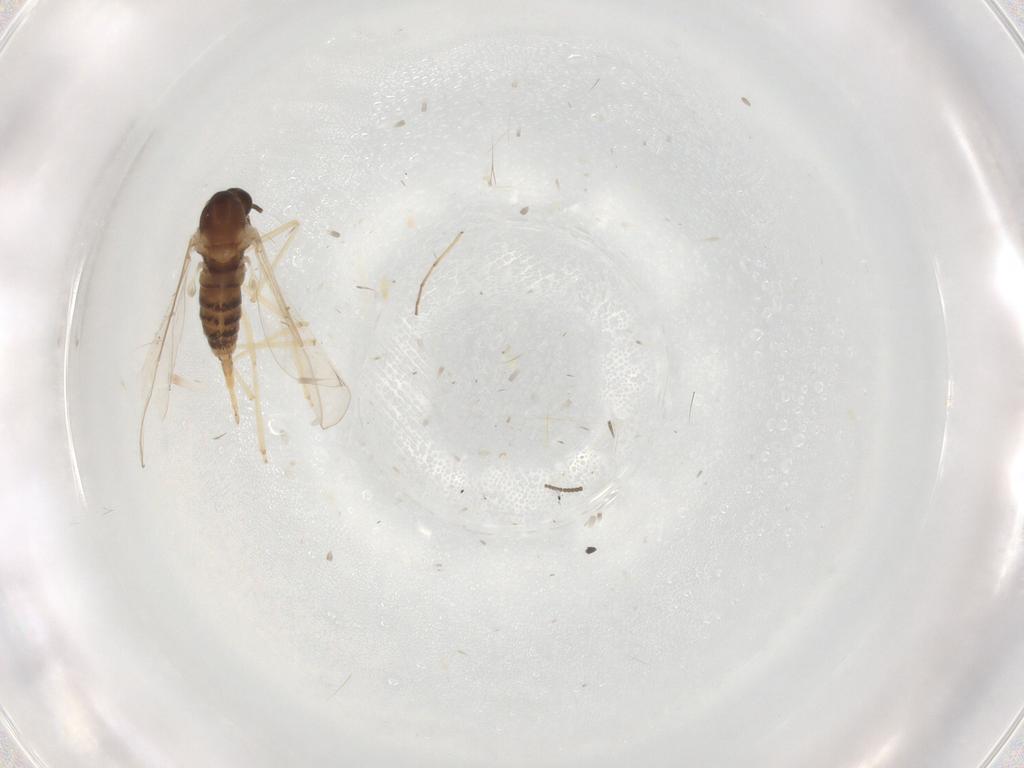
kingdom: Animalia
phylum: Arthropoda
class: Insecta
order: Diptera
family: Chironomidae
